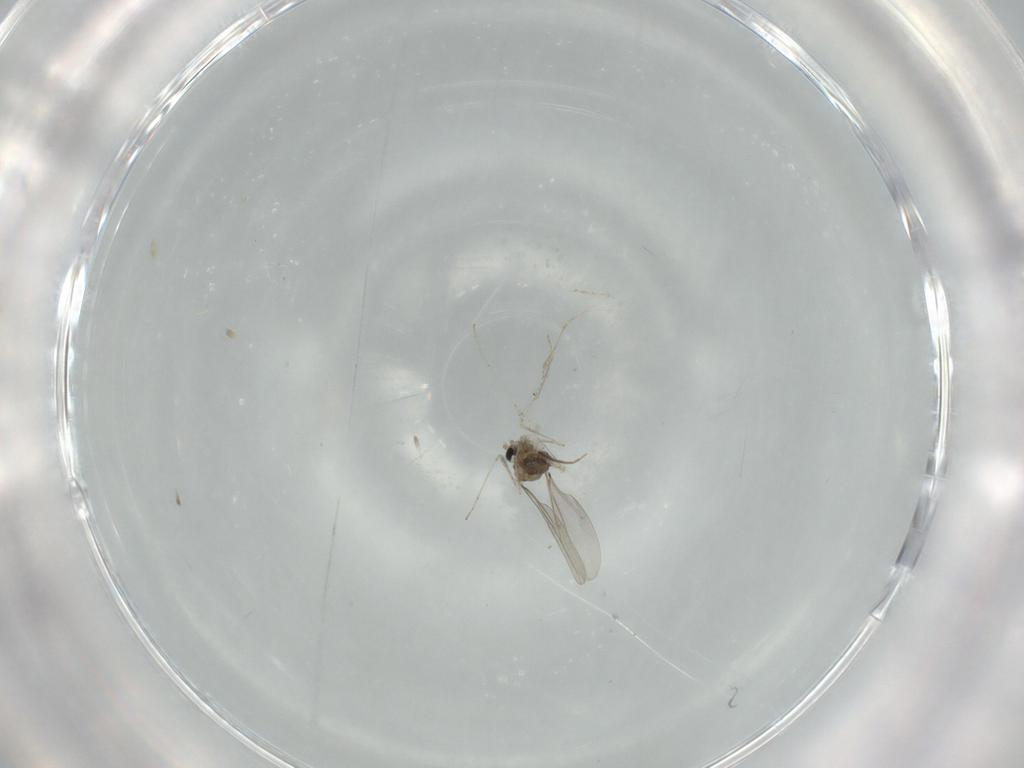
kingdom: Animalia
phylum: Arthropoda
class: Insecta
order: Diptera
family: Cecidomyiidae
